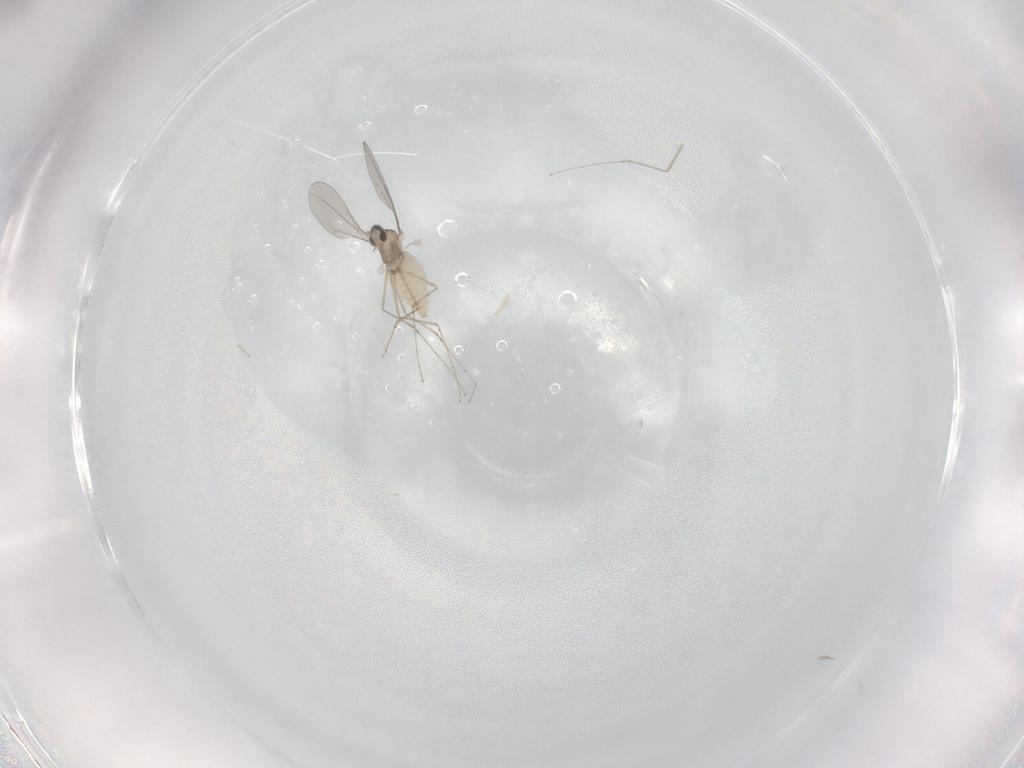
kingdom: Animalia
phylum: Arthropoda
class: Insecta
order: Diptera
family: Cecidomyiidae
